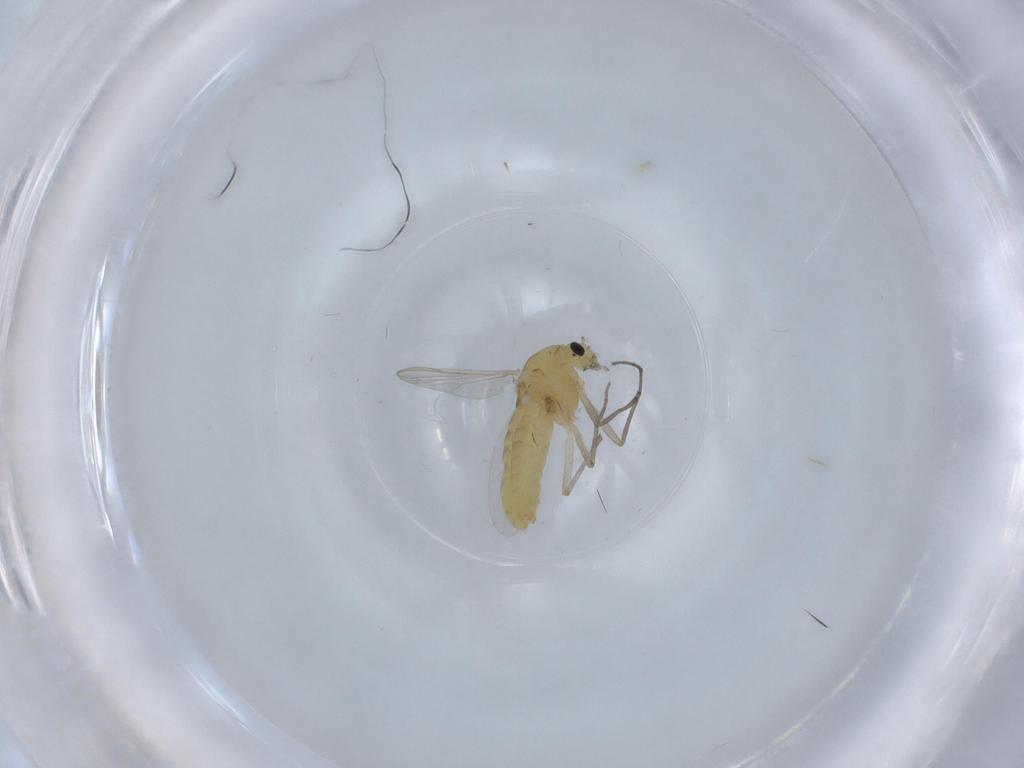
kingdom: Animalia
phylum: Arthropoda
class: Insecta
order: Diptera
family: Chironomidae
